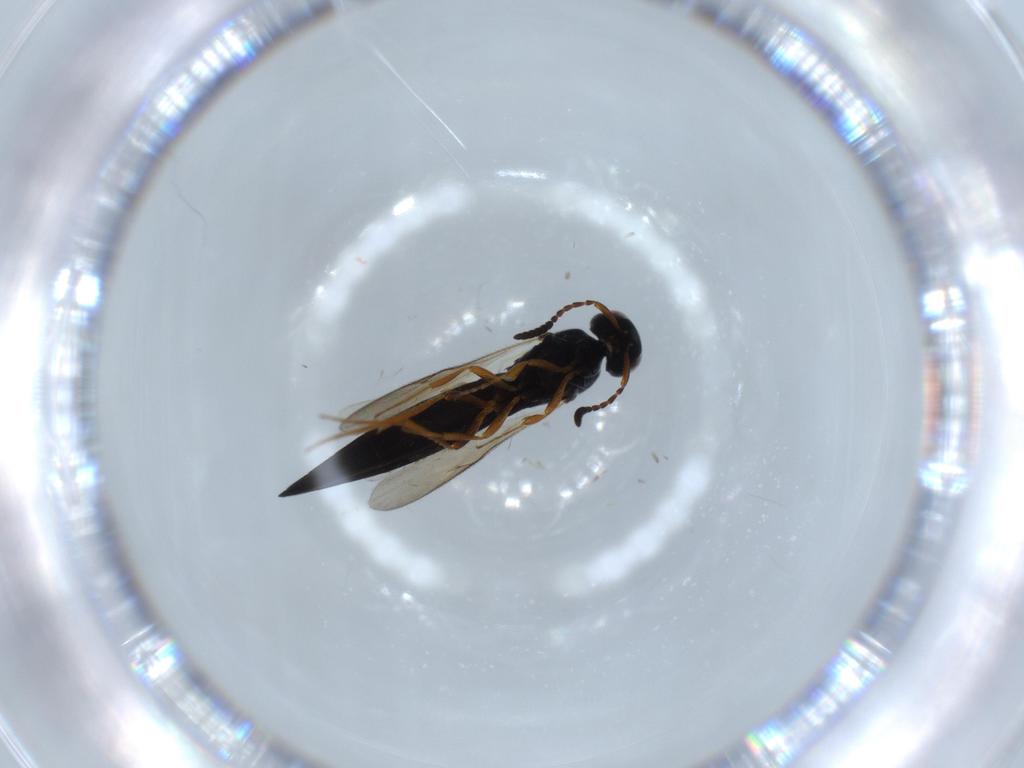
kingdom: Animalia
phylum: Arthropoda
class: Insecta
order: Hymenoptera
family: Scelionidae
